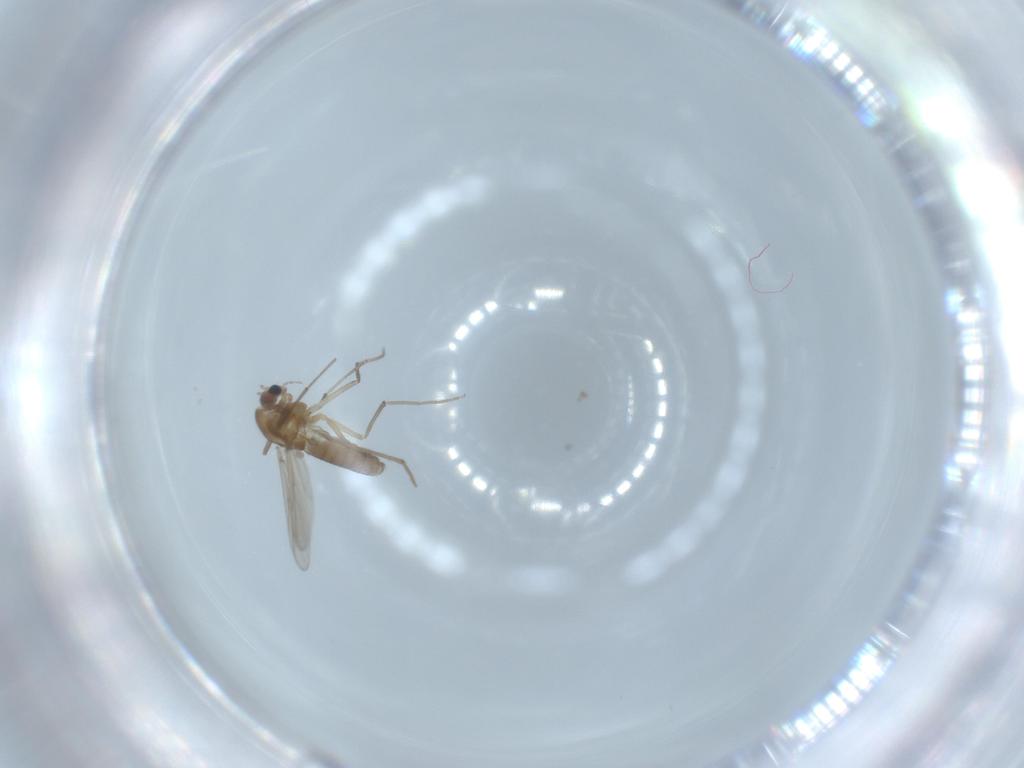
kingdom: Animalia
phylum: Arthropoda
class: Insecta
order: Diptera
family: Chironomidae
